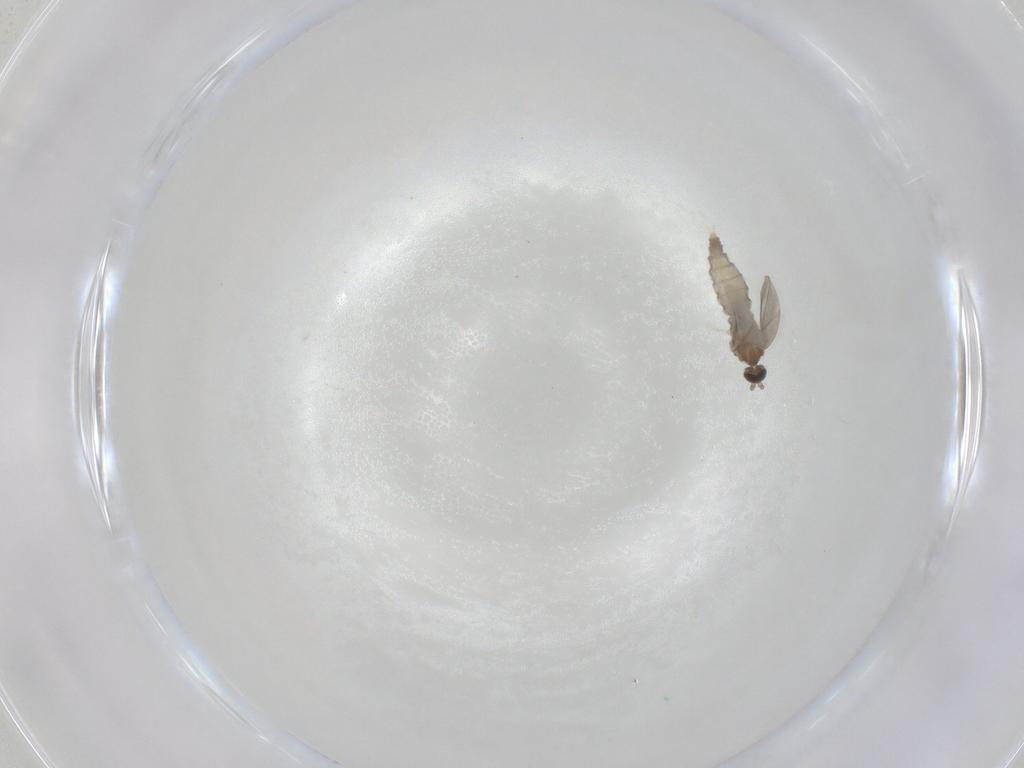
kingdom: Animalia
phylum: Arthropoda
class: Insecta
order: Diptera
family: Cecidomyiidae
